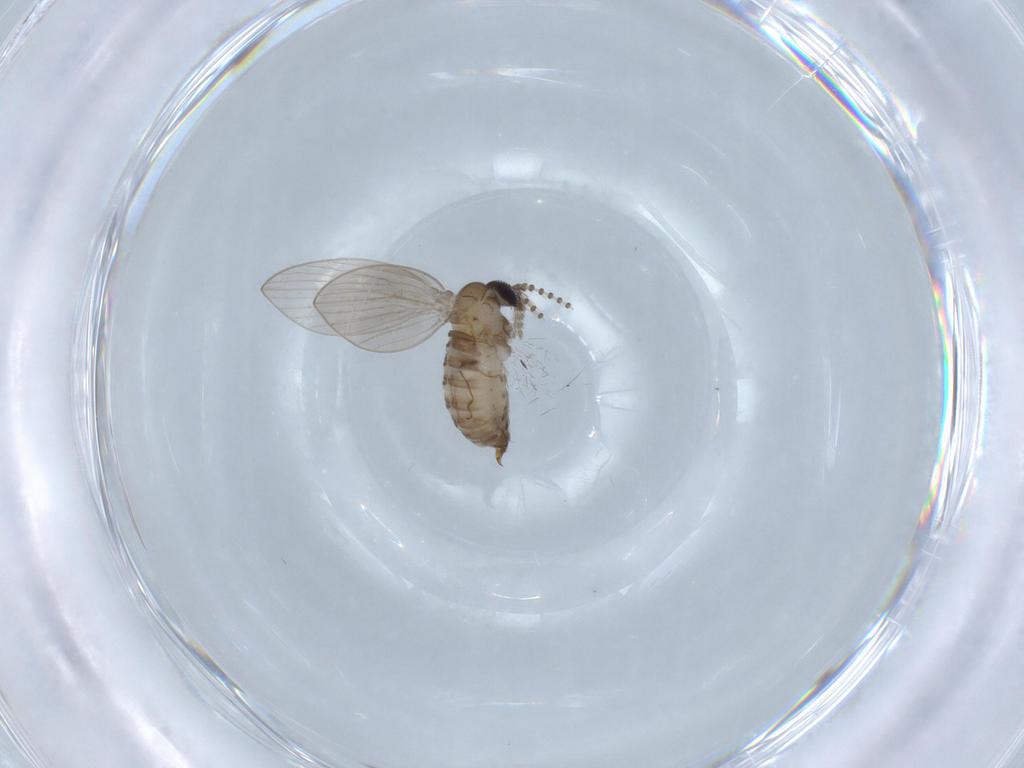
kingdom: Animalia
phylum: Arthropoda
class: Insecta
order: Diptera
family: Psychodidae
